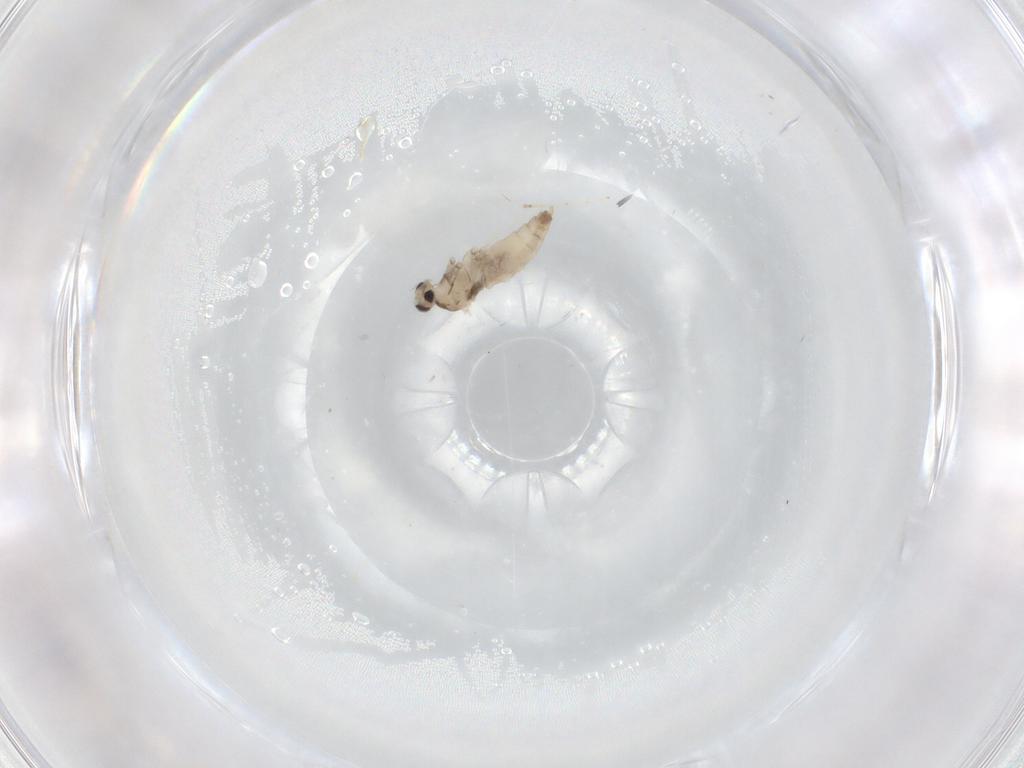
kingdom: Animalia
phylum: Arthropoda
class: Insecta
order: Diptera
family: Cecidomyiidae
